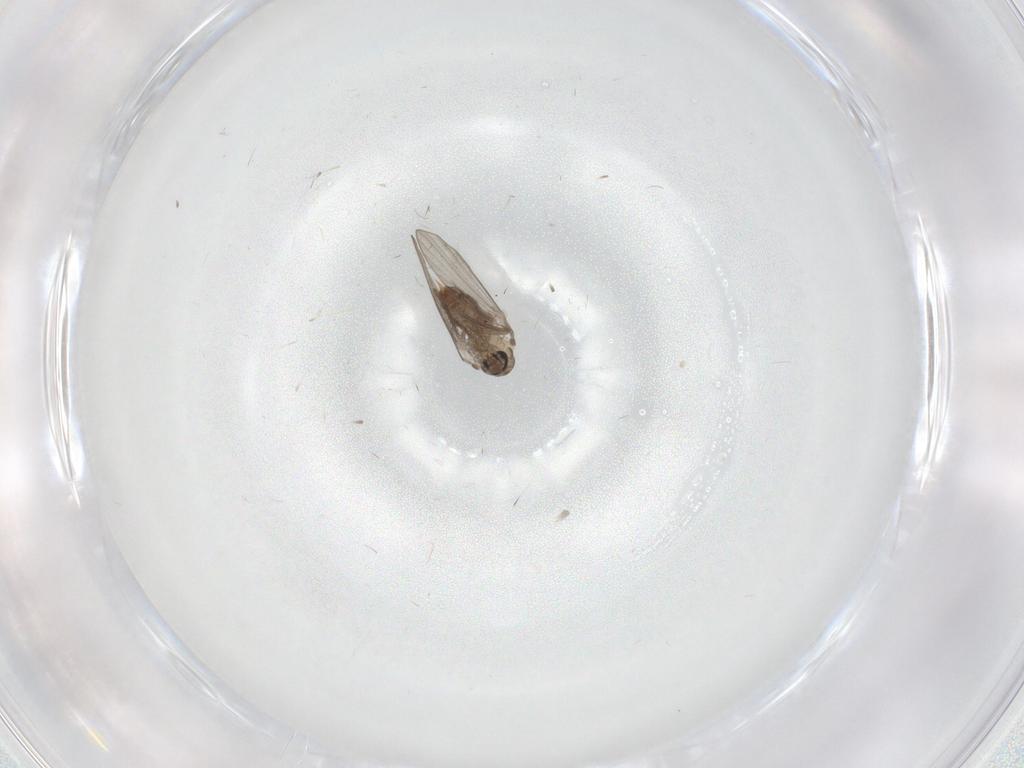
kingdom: Animalia
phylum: Arthropoda
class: Insecta
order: Diptera
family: Psychodidae
